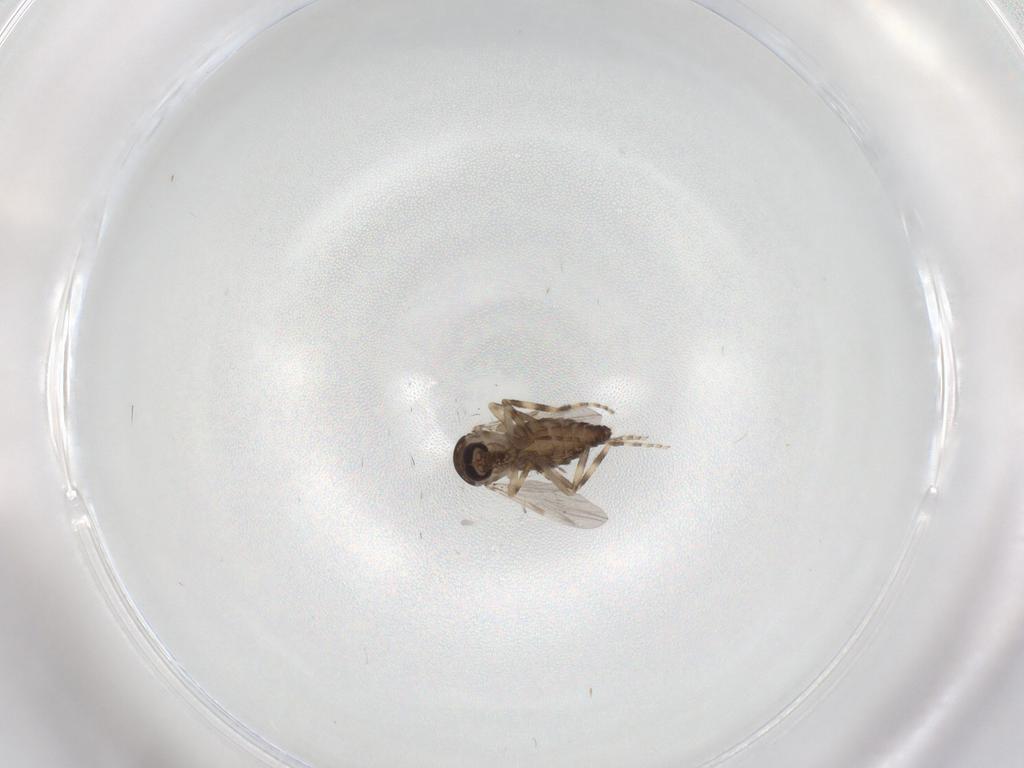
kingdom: Animalia
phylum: Arthropoda
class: Insecta
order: Diptera
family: Ceratopogonidae
